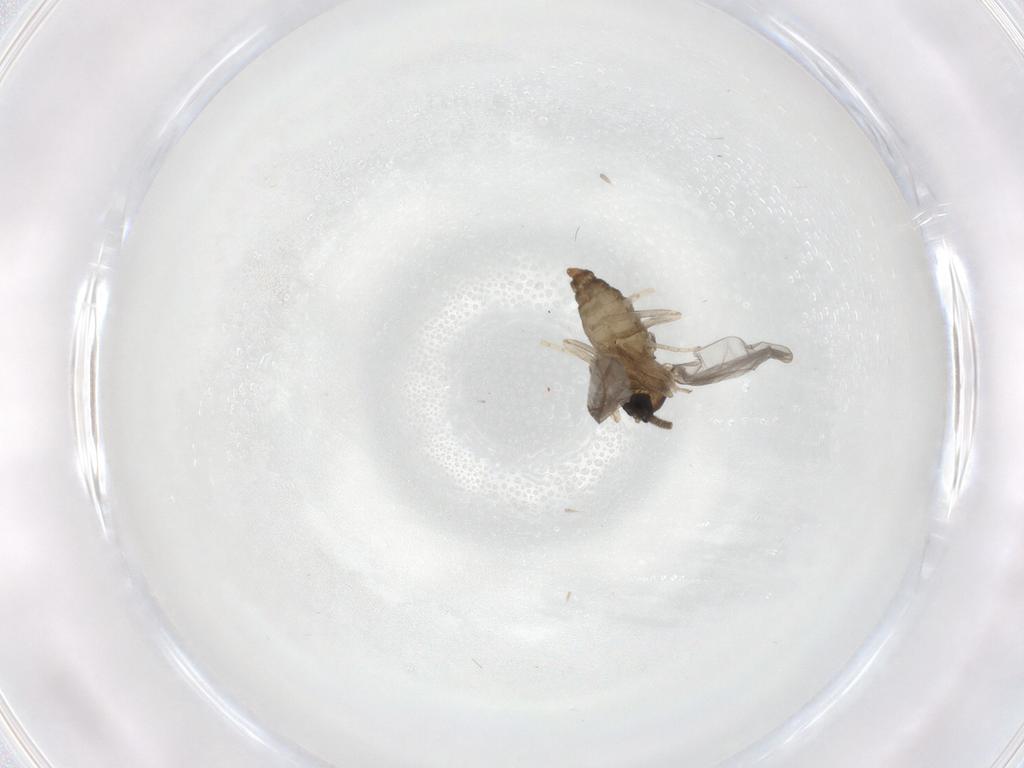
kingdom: Animalia
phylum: Arthropoda
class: Insecta
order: Diptera
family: Cecidomyiidae
